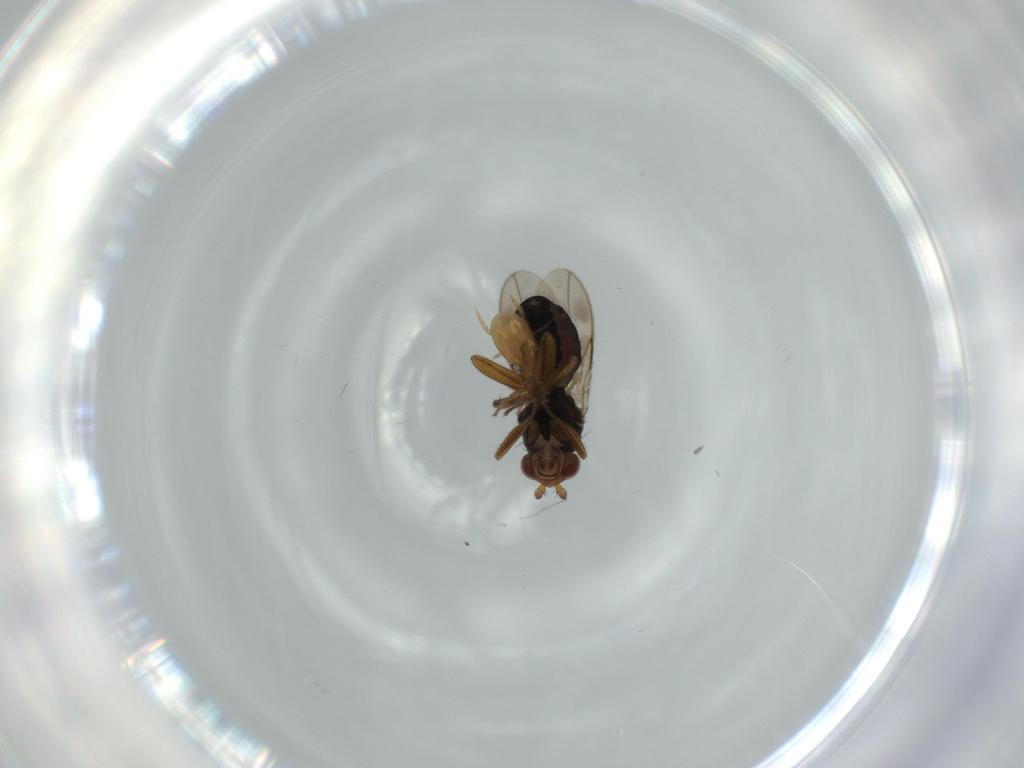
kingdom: Animalia
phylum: Arthropoda
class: Insecta
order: Diptera
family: Sphaeroceridae
